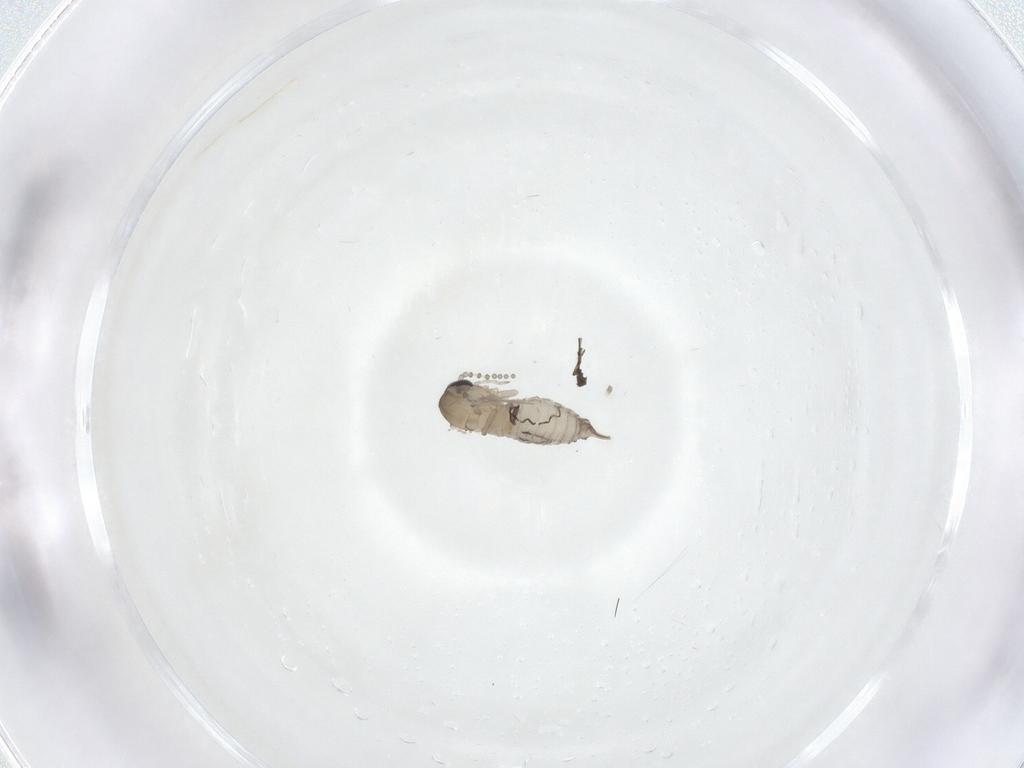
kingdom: Animalia
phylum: Arthropoda
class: Insecta
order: Diptera
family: Psychodidae
